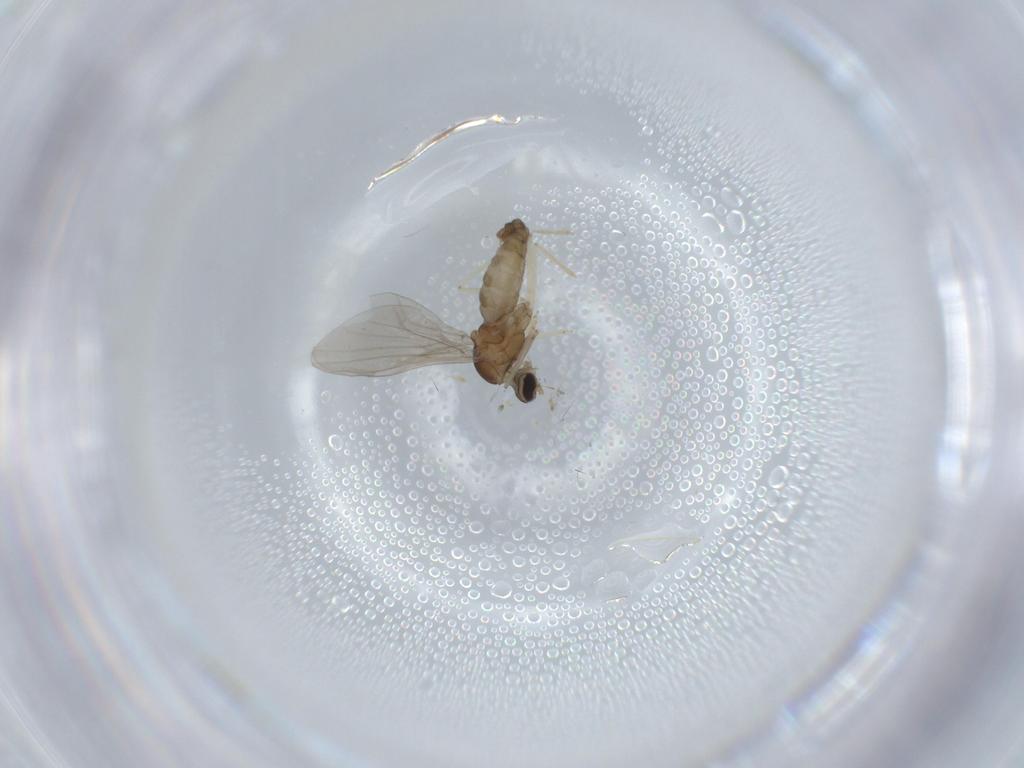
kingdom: Animalia
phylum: Arthropoda
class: Insecta
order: Diptera
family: Cecidomyiidae
